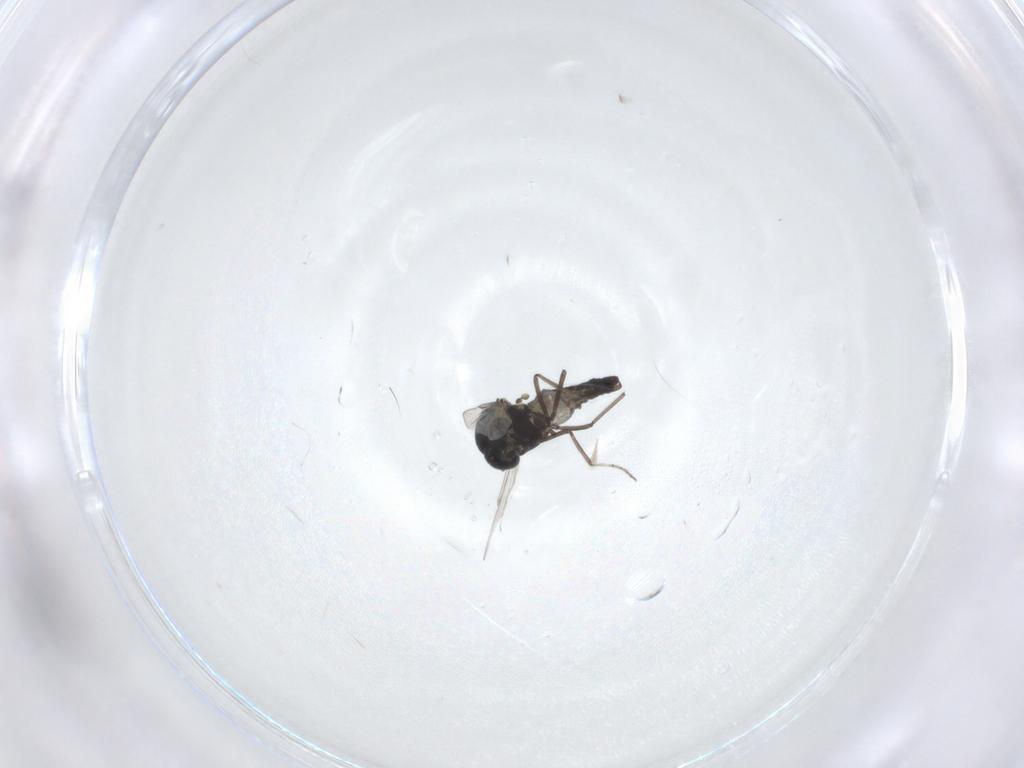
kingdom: Animalia
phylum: Arthropoda
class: Insecta
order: Diptera
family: Ceratopogonidae
